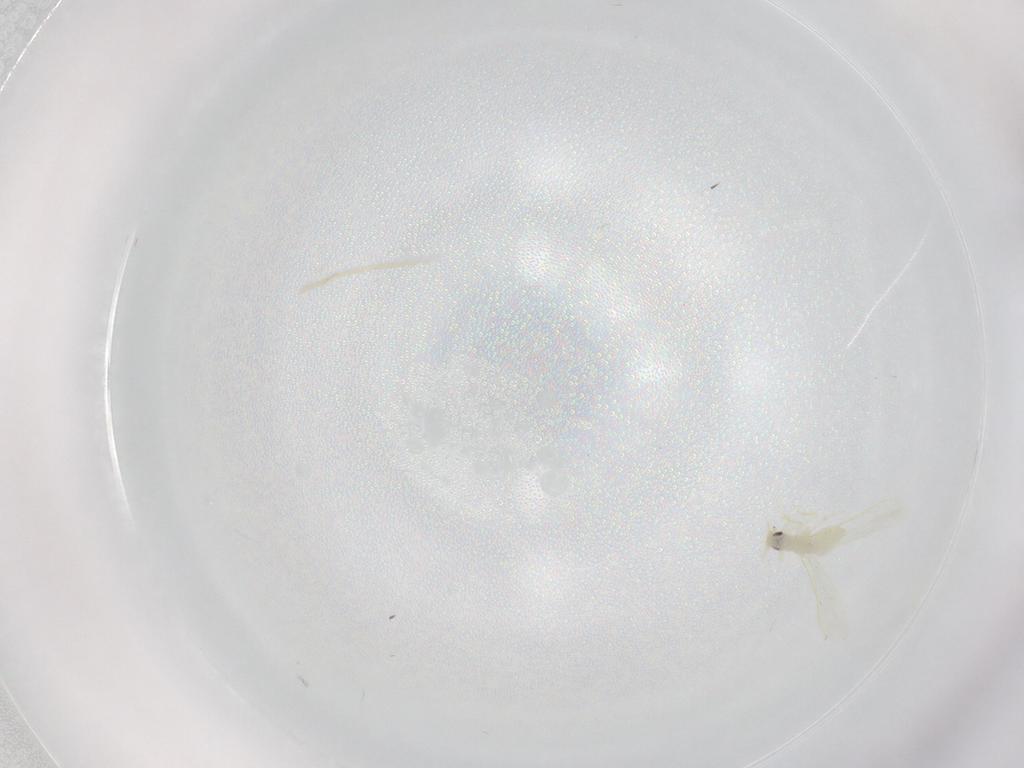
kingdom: Animalia
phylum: Arthropoda
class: Insecta
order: Hemiptera
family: Aleyrodidae
